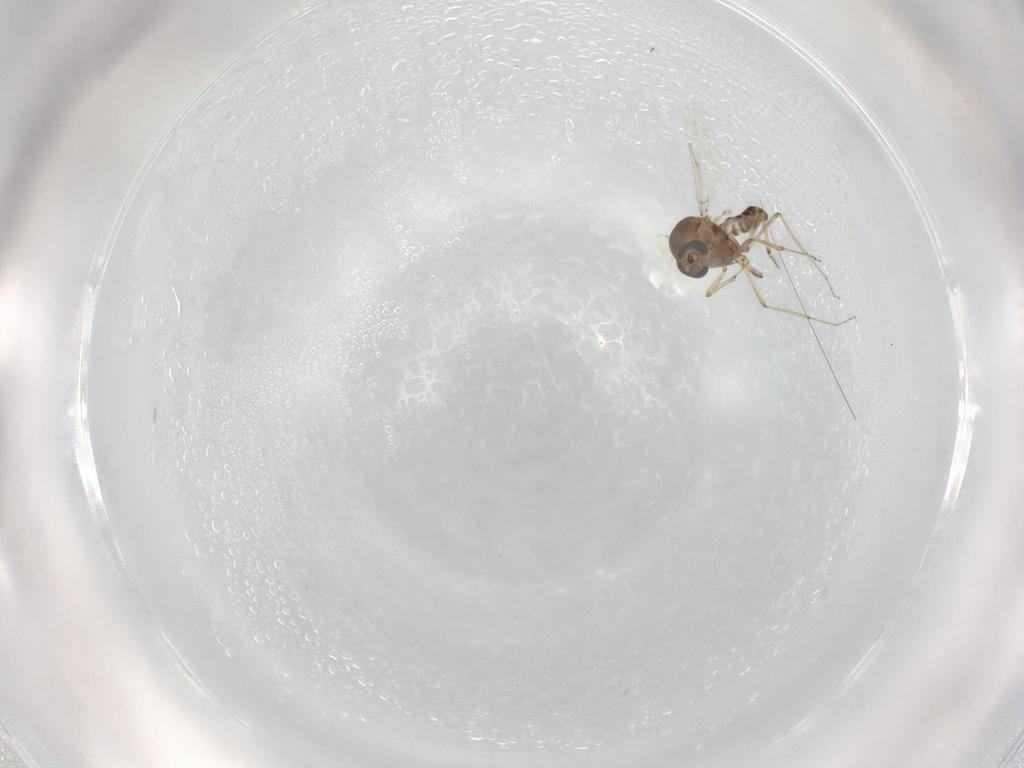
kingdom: Animalia
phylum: Arthropoda
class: Insecta
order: Diptera
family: Ceratopogonidae
